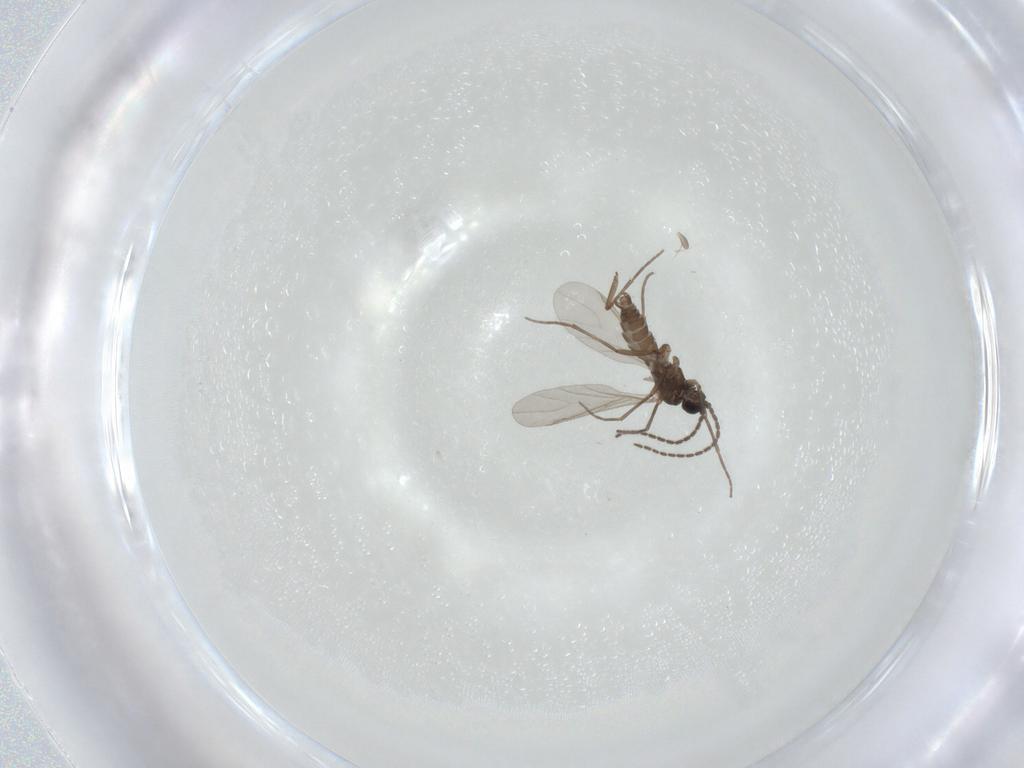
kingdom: Animalia
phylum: Arthropoda
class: Insecta
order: Diptera
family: Sciaridae
